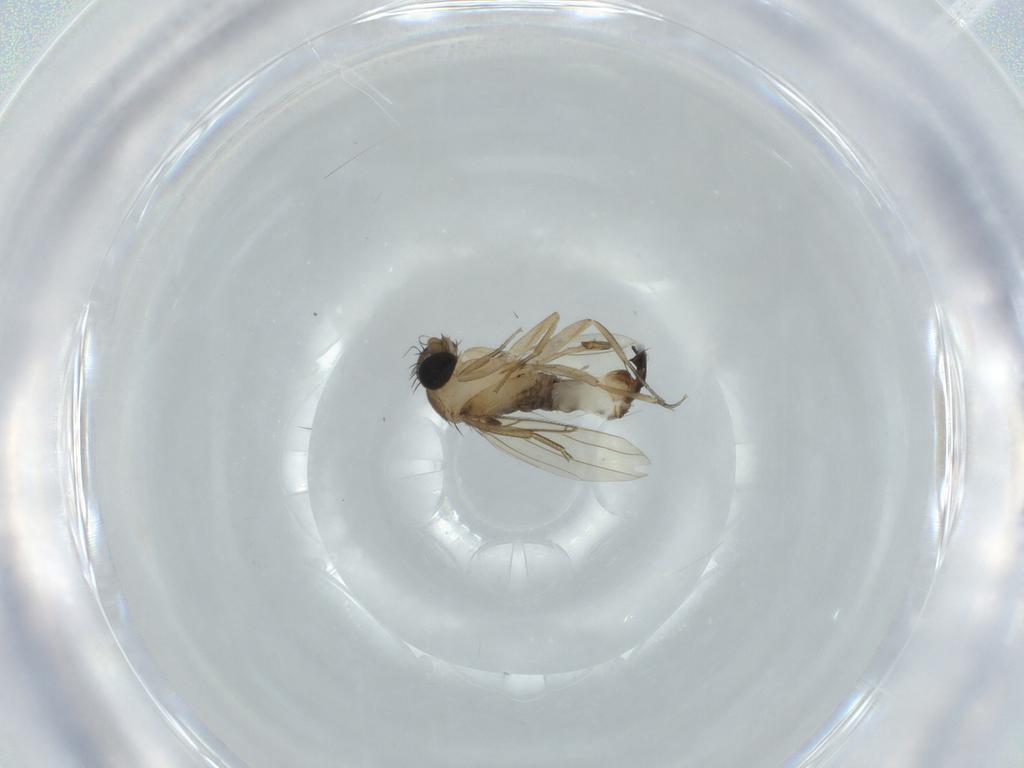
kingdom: Animalia
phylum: Arthropoda
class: Insecta
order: Diptera
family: Phoridae
